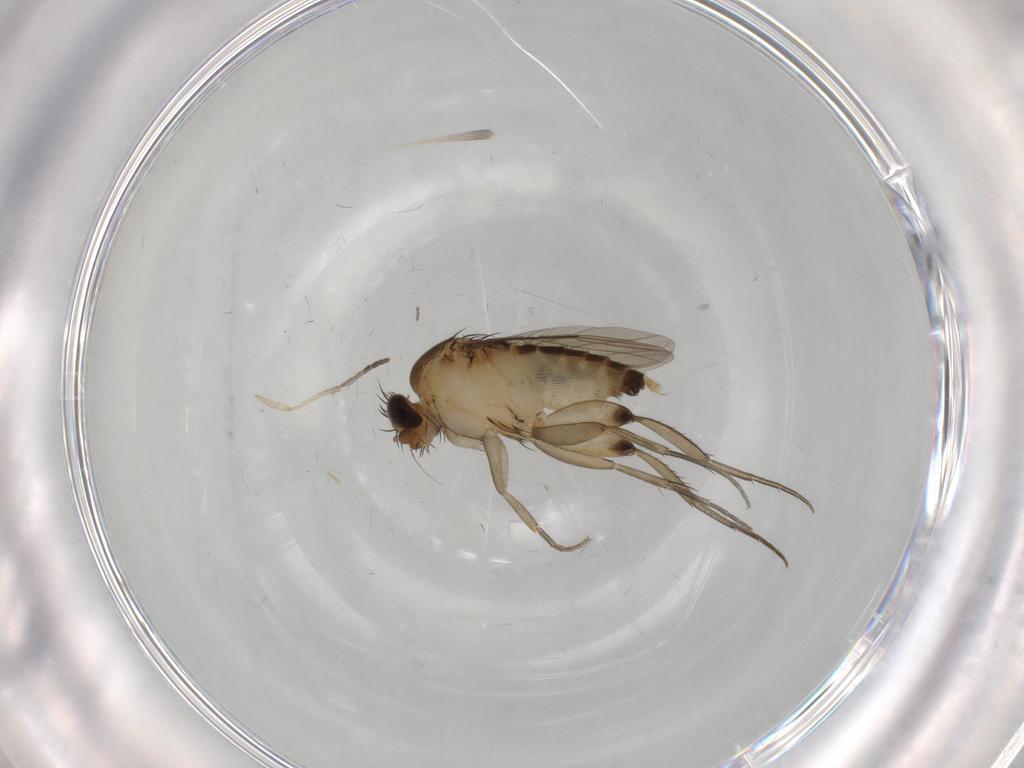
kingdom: Animalia
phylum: Arthropoda
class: Insecta
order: Diptera
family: Phoridae
